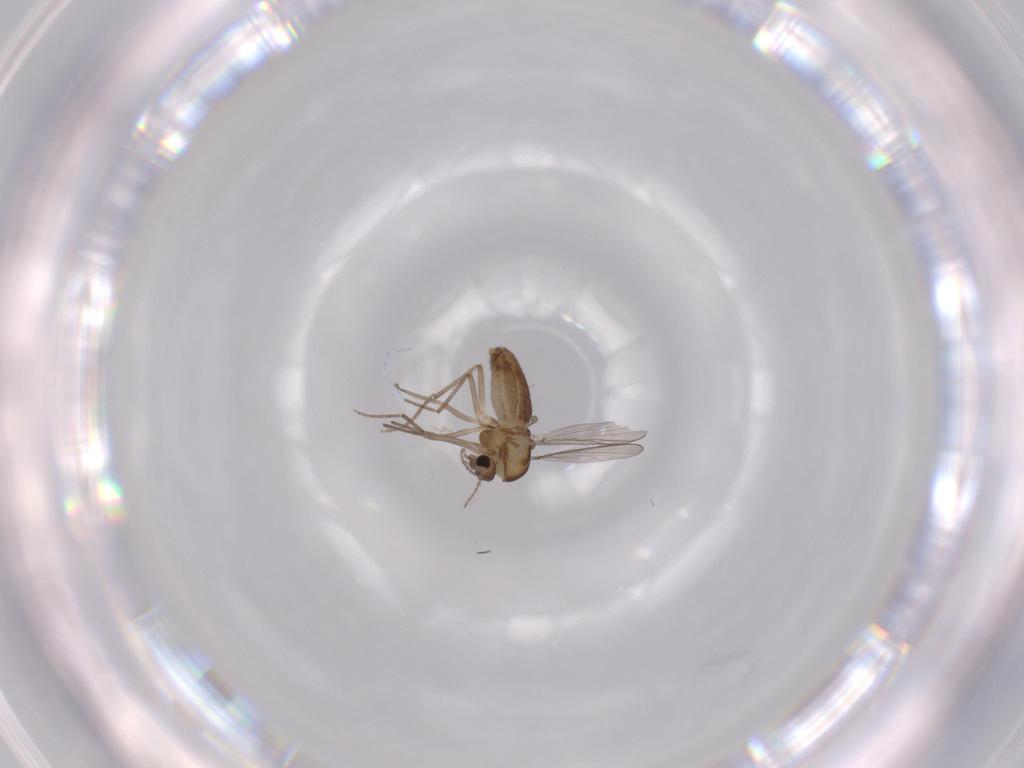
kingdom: Animalia
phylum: Arthropoda
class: Insecta
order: Diptera
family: Chironomidae
